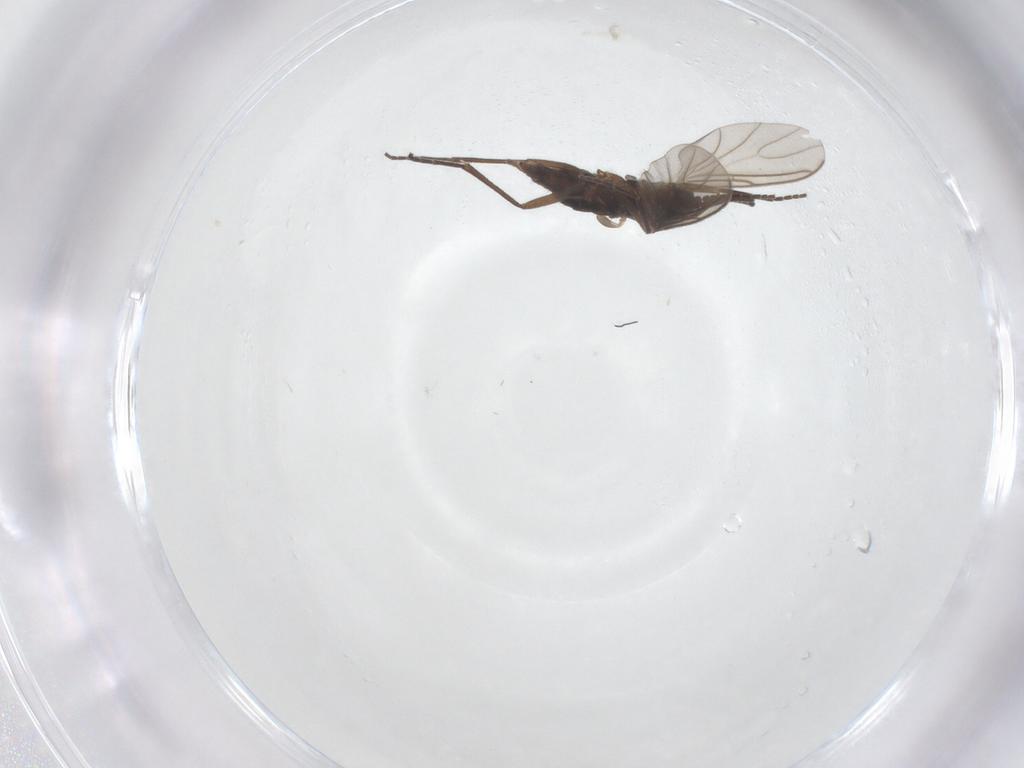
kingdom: Animalia
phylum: Arthropoda
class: Insecta
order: Diptera
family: Sciaridae
